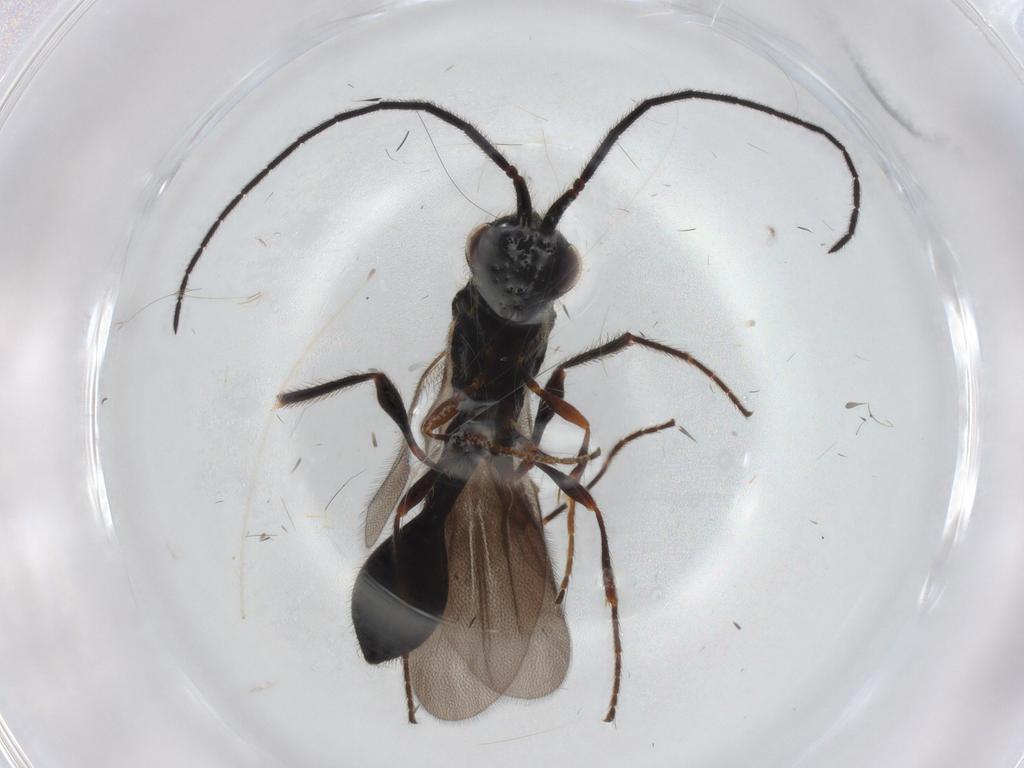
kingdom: Animalia
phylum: Arthropoda
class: Insecta
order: Hymenoptera
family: Diapriidae
